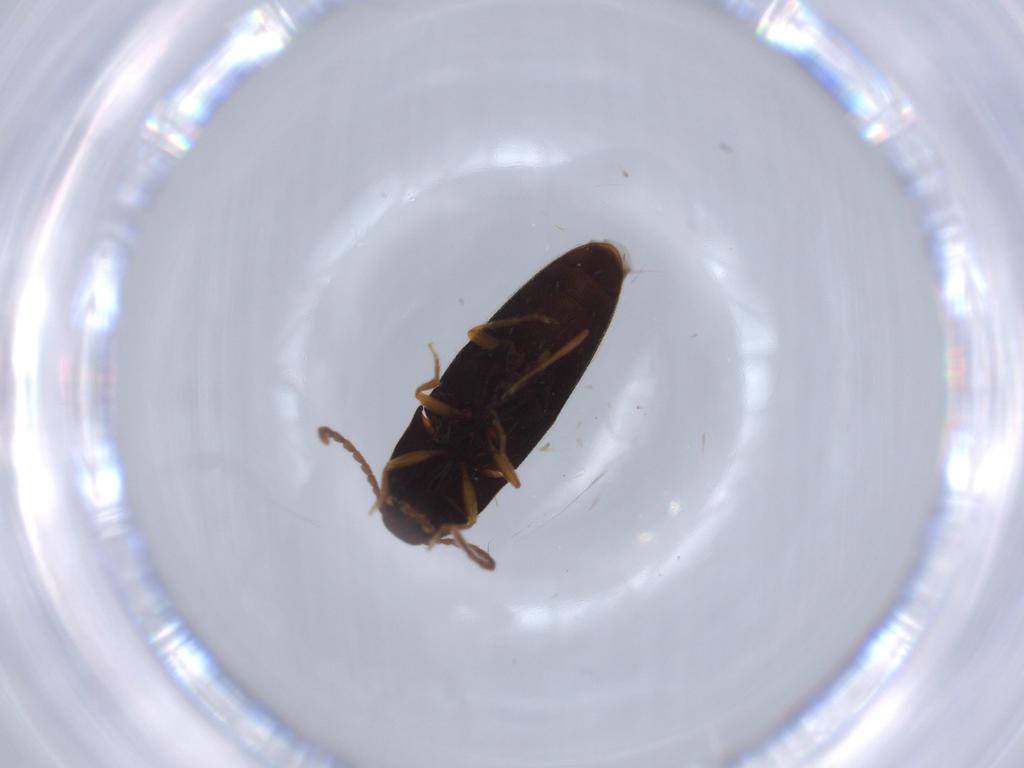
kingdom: Animalia
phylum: Arthropoda
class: Insecta
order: Coleoptera
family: Elateridae
